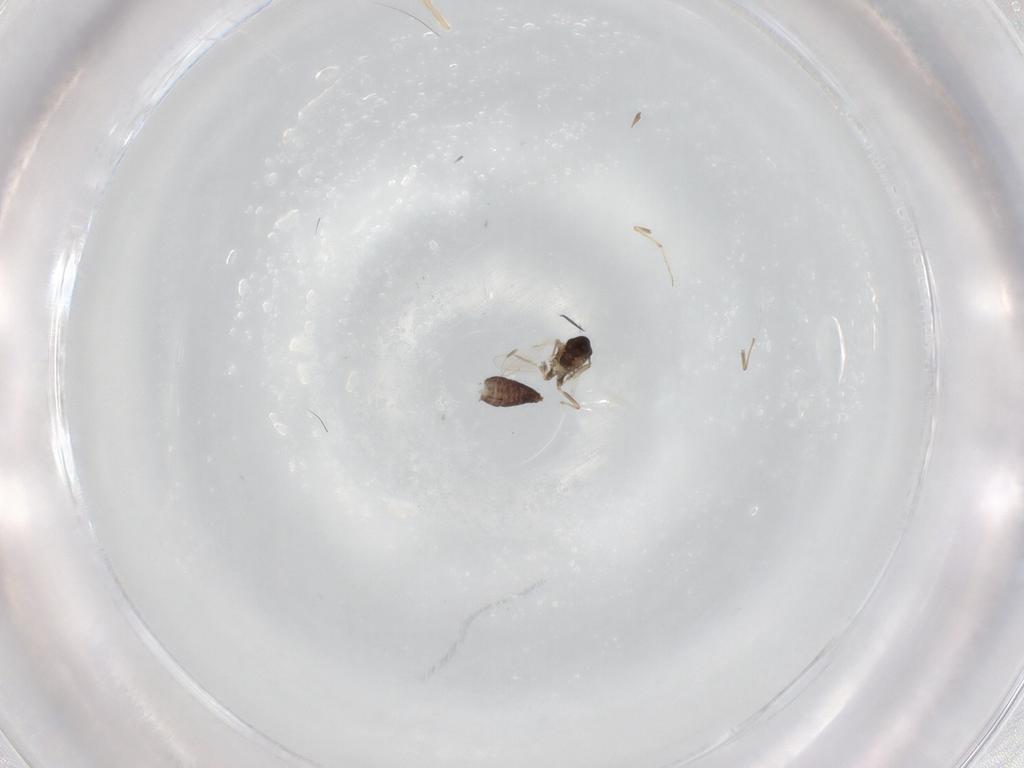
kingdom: Animalia
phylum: Arthropoda
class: Insecta
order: Diptera
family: Chironomidae
